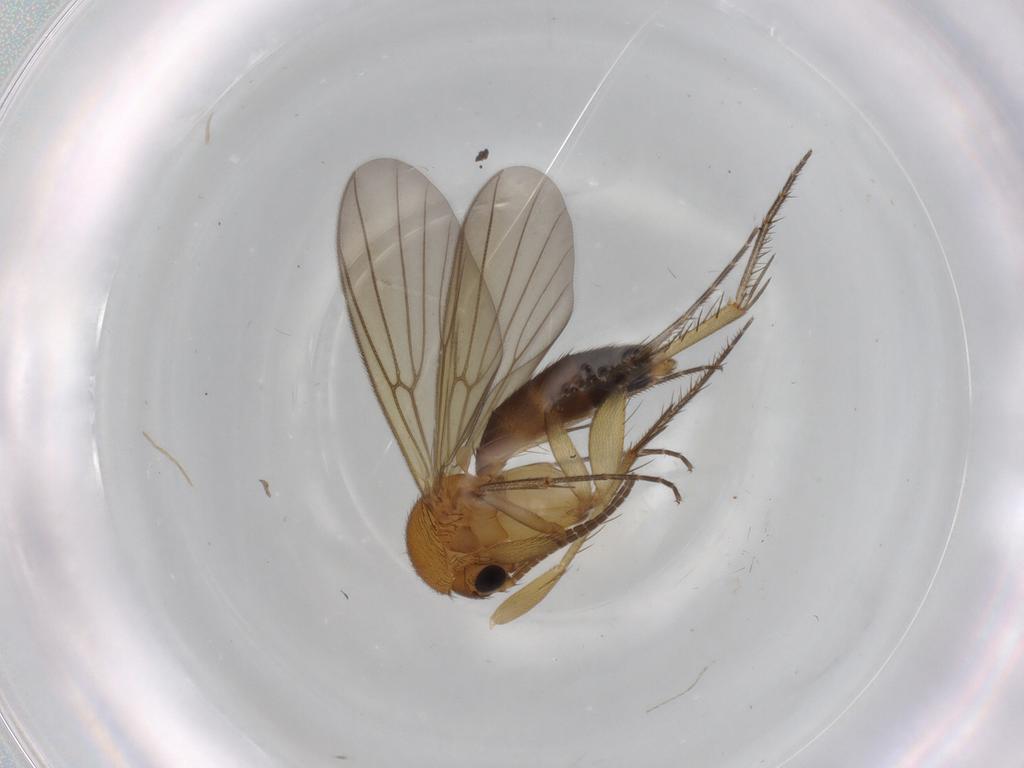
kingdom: Animalia
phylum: Arthropoda
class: Insecta
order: Diptera
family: Mycetophilidae
